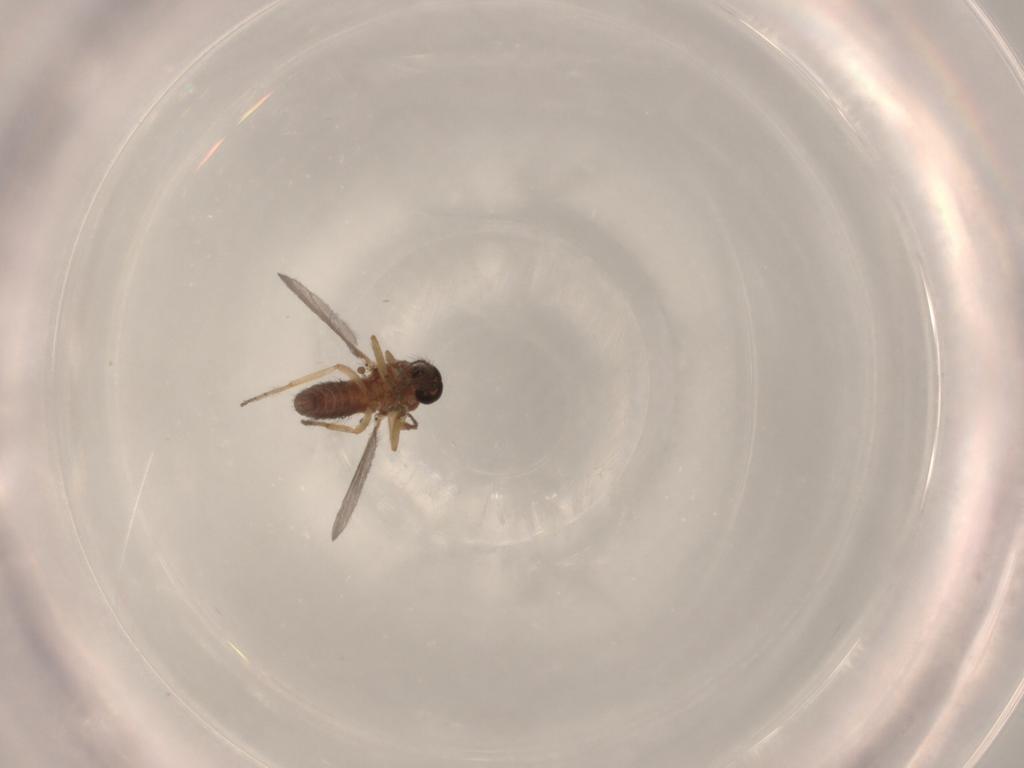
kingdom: Animalia
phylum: Arthropoda
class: Insecta
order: Diptera
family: Ceratopogonidae
